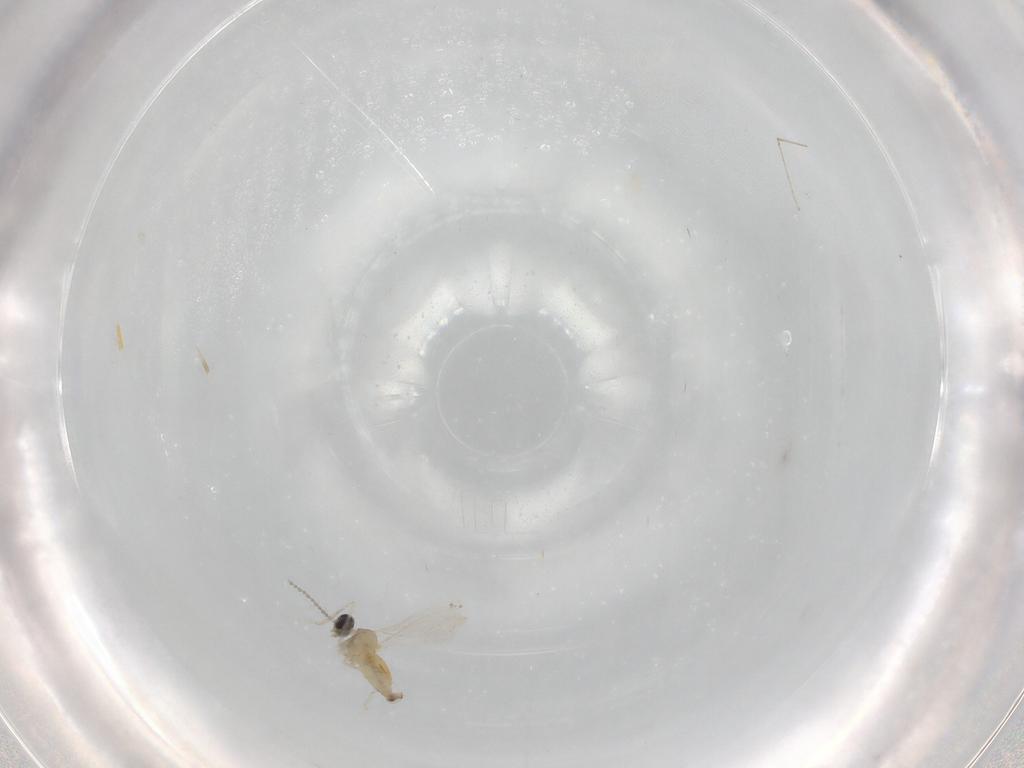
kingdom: Animalia
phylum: Arthropoda
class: Insecta
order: Diptera
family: Cecidomyiidae
